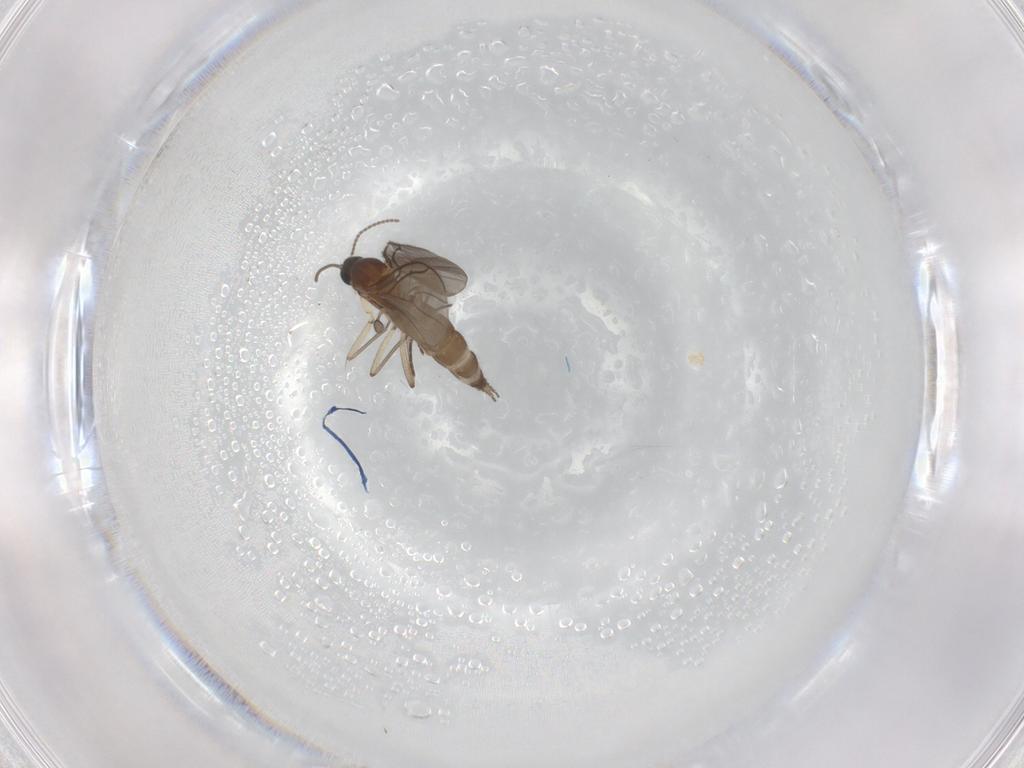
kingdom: Animalia
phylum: Arthropoda
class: Insecta
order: Diptera
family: Sciaridae
